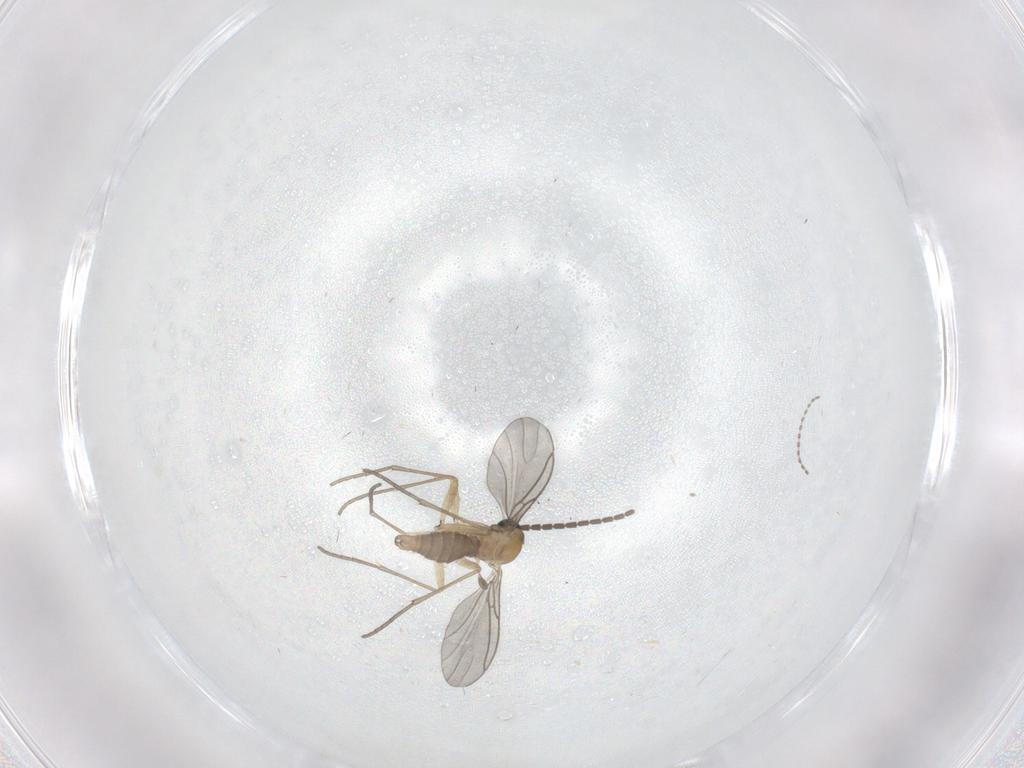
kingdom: Animalia
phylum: Arthropoda
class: Insecta
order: Diptera
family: Sciaridae
